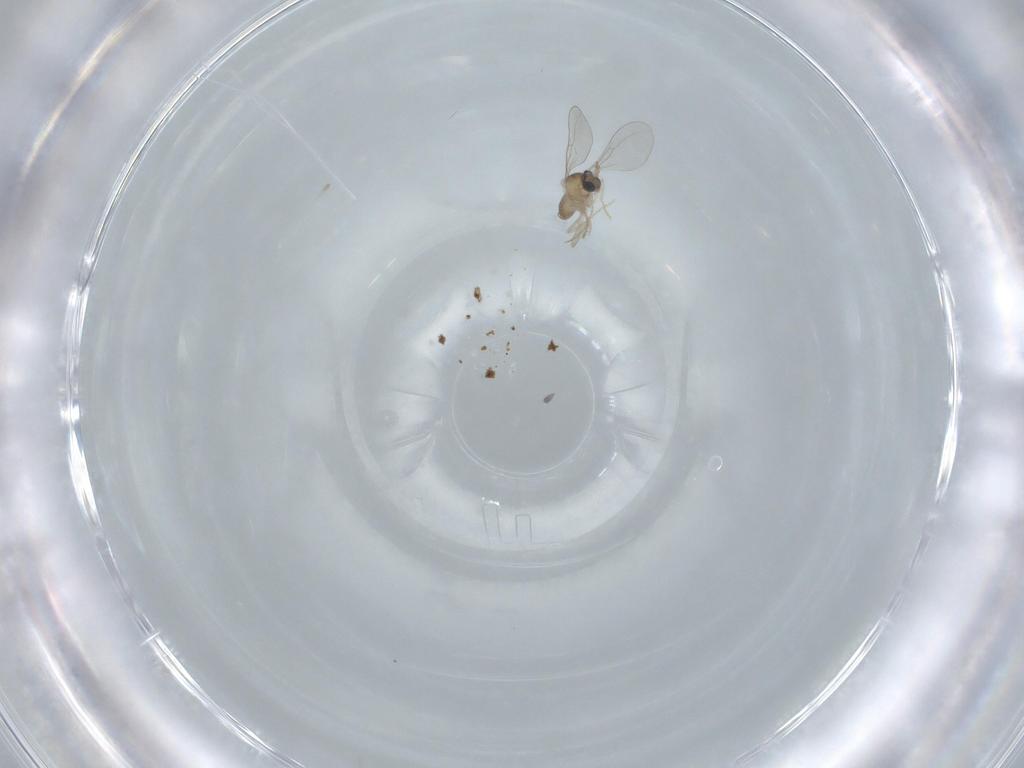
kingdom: Animalia
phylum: Arthropoda
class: Insecta
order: Diptera
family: Cecidomyiidae
